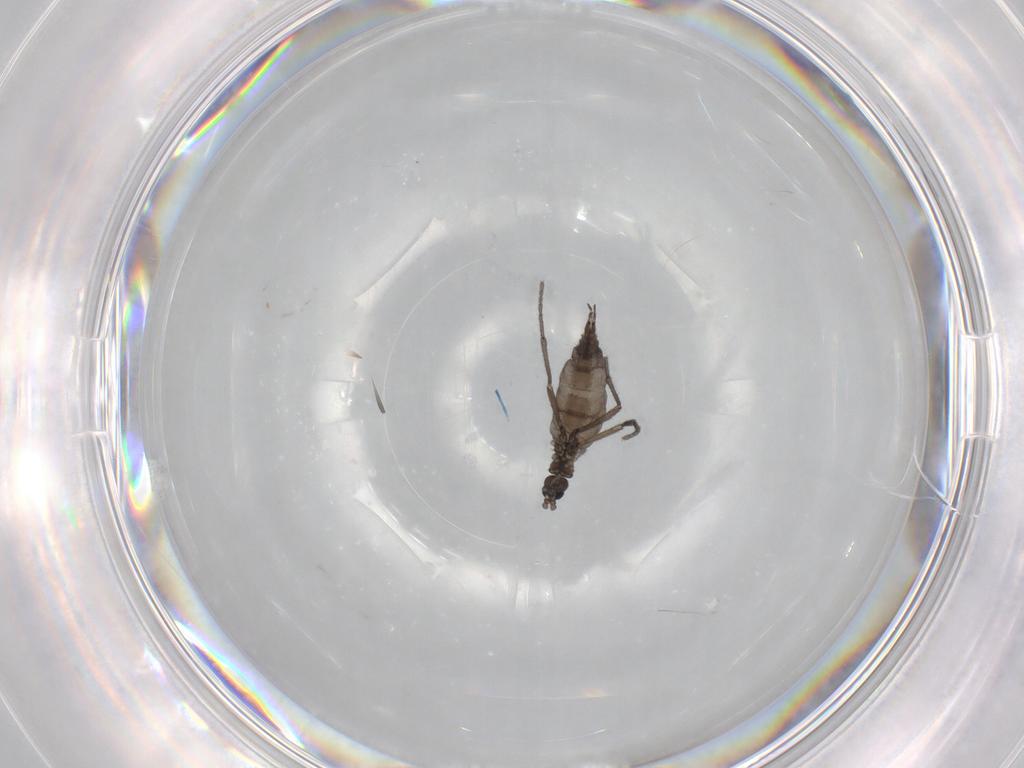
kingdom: Animalia
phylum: Arthropoda
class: Insecta
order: Diptera
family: Sciaridae
